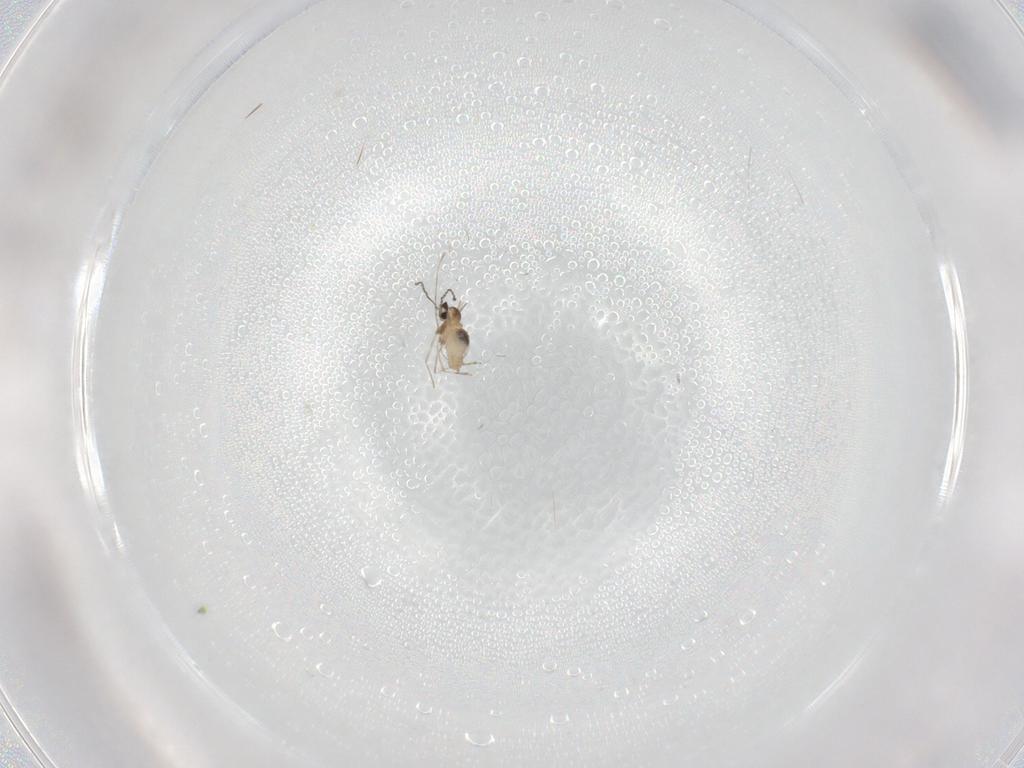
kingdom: Animalia
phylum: Arthropoda
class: Insecta
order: Diptera
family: Cecidomyiidae
